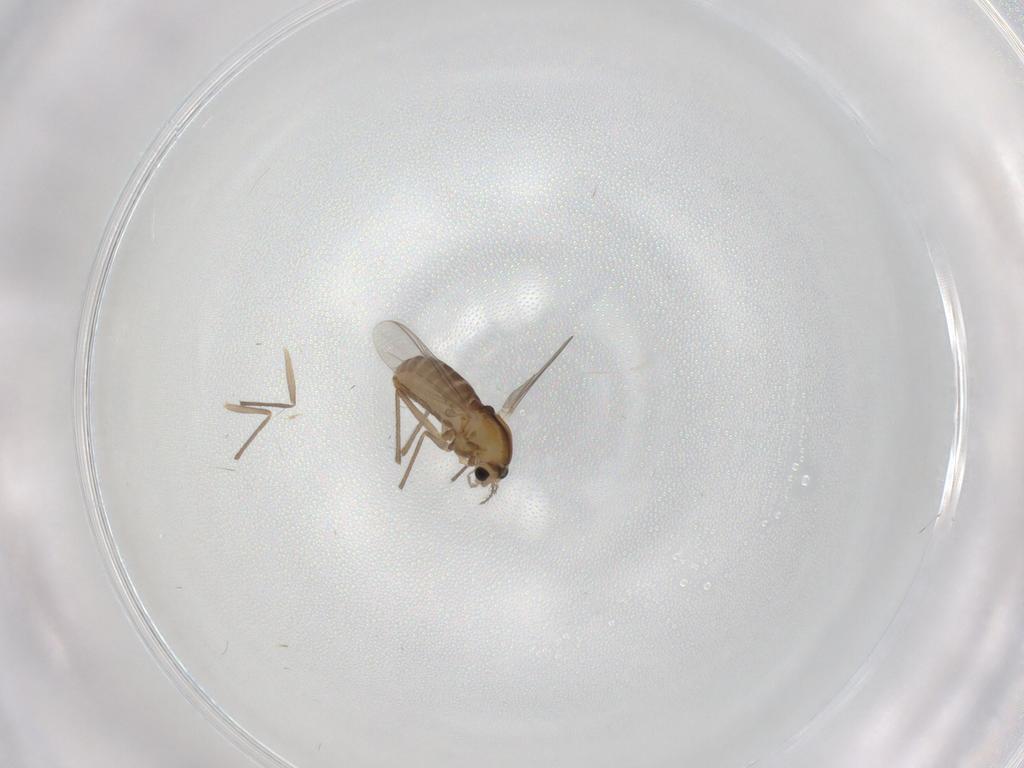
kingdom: Animalia
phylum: Arthropoda
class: Insecta
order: Diptera
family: Chironomidae
